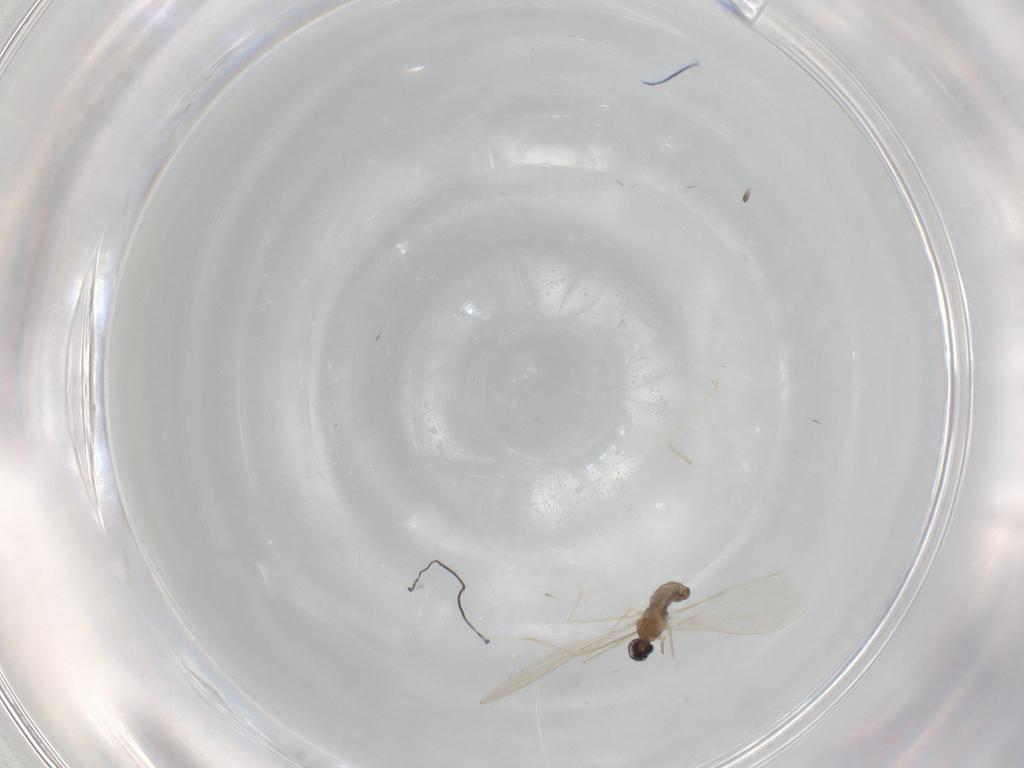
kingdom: Animalia
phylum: Arthropoda
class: Insecta
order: Diptera
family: Cecidomyiidae
